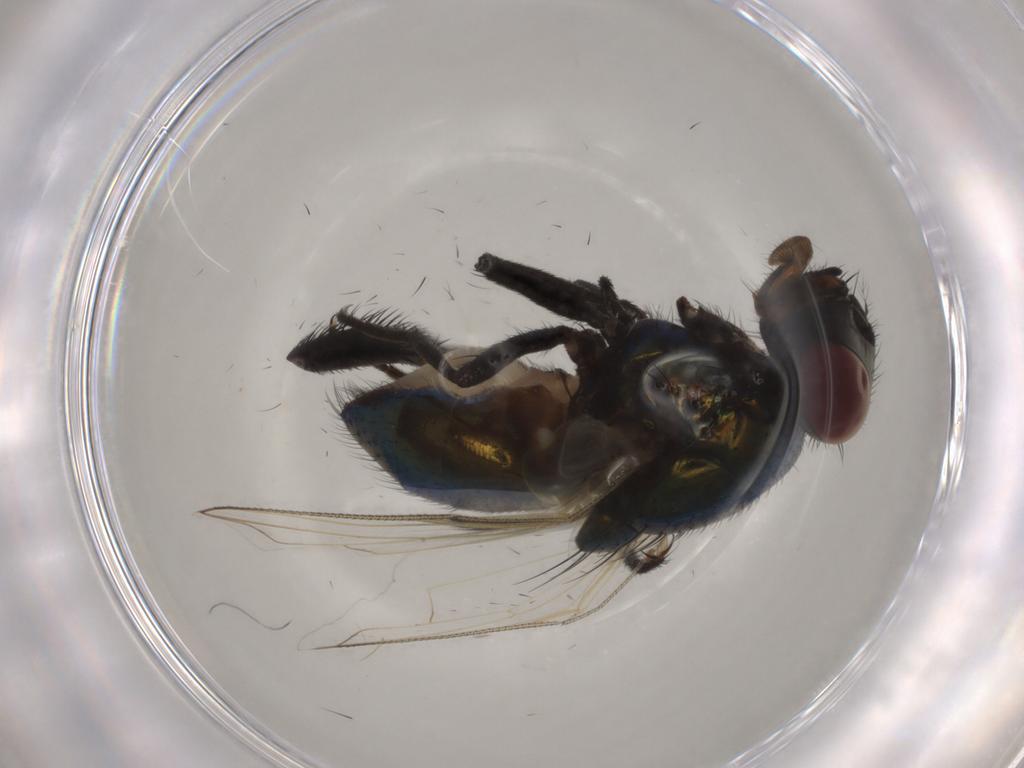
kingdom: Animalia
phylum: Arthropoda
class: Insecta
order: Diptera
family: Muscidae
